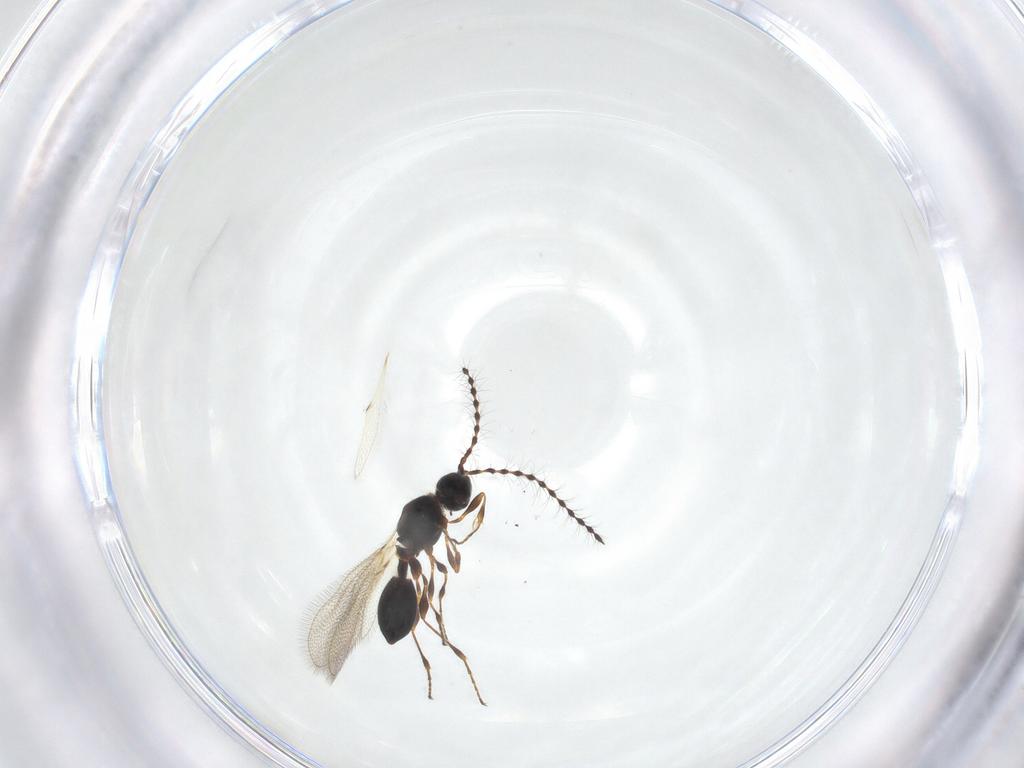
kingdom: Animalia
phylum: Arthropoda
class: Insecta
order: Hymenoptera
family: Diapriidae
